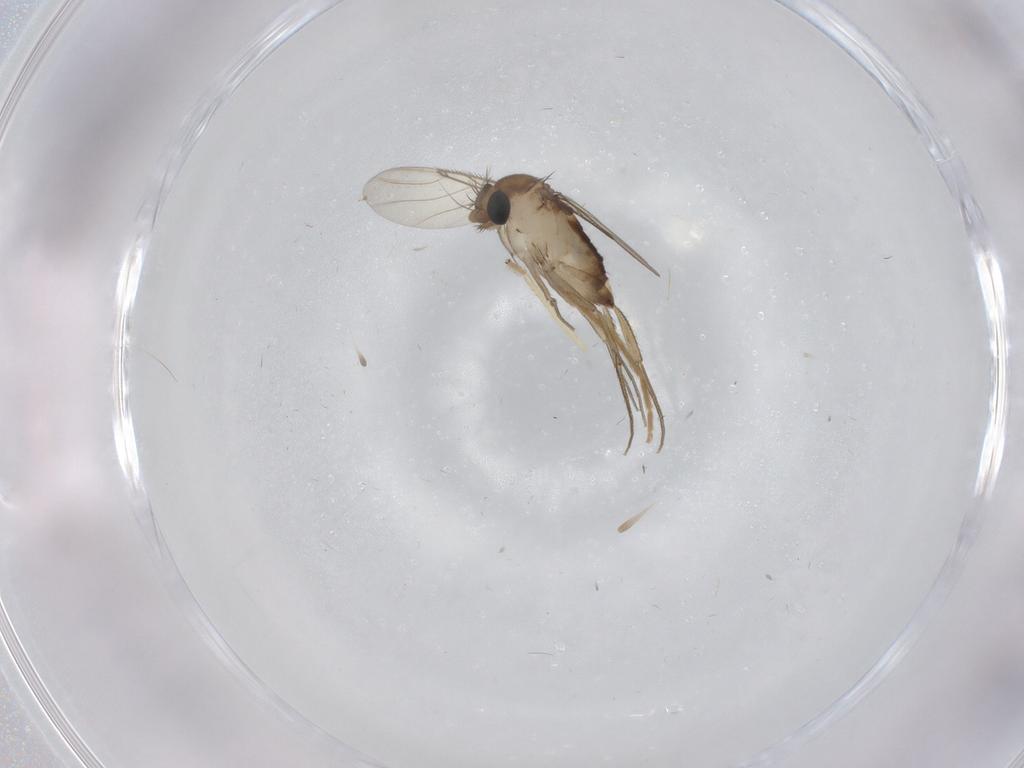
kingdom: Animalia
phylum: Arthropoda
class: Insecta
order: Diptera
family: Phoridae
